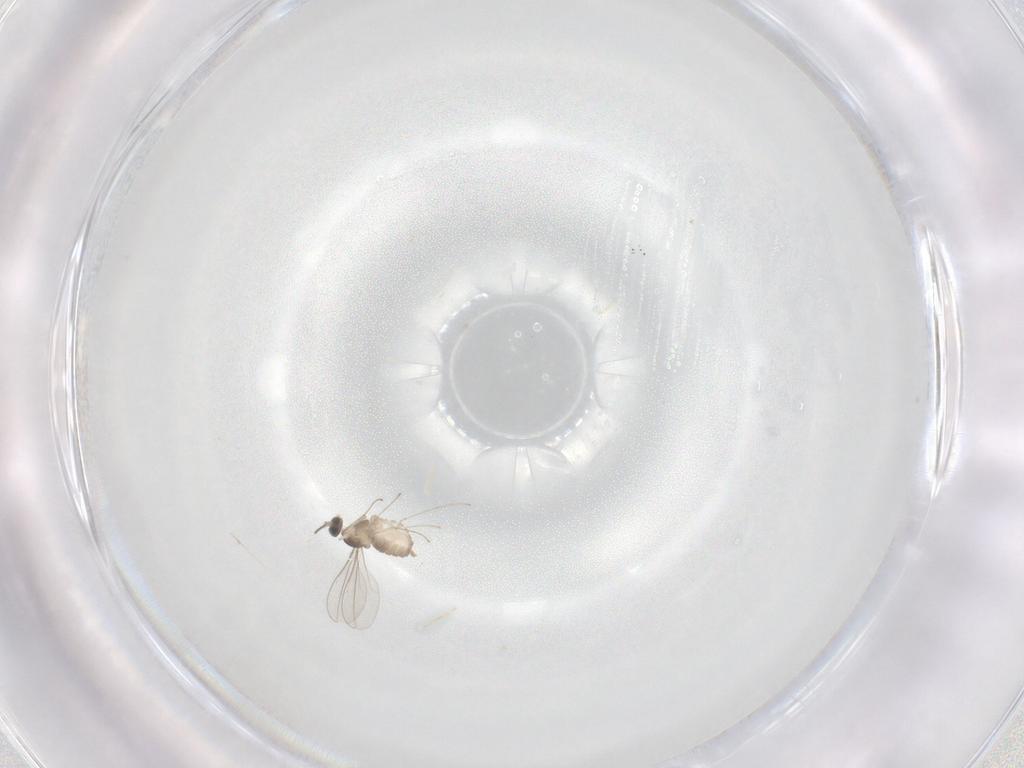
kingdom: Animalia
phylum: Arthropoda
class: Insecta
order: Diptera
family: Cecidomyiidae
